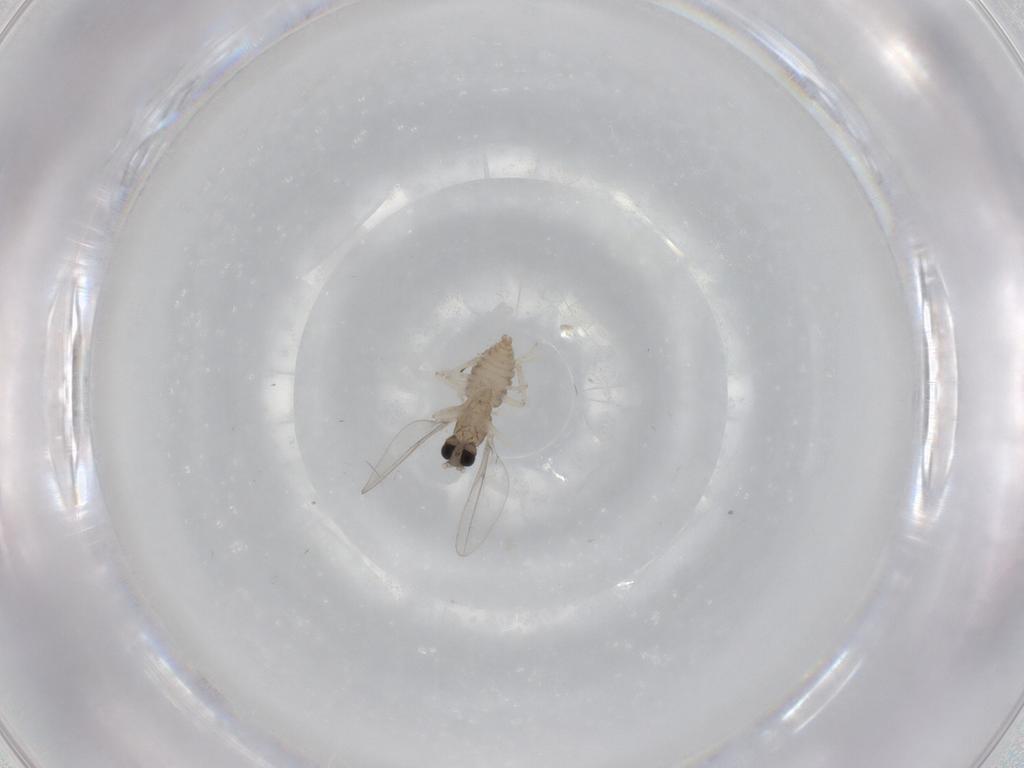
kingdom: Animalia
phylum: Arthropoda
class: Insecta
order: Diptera
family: Cecidomyiidae
